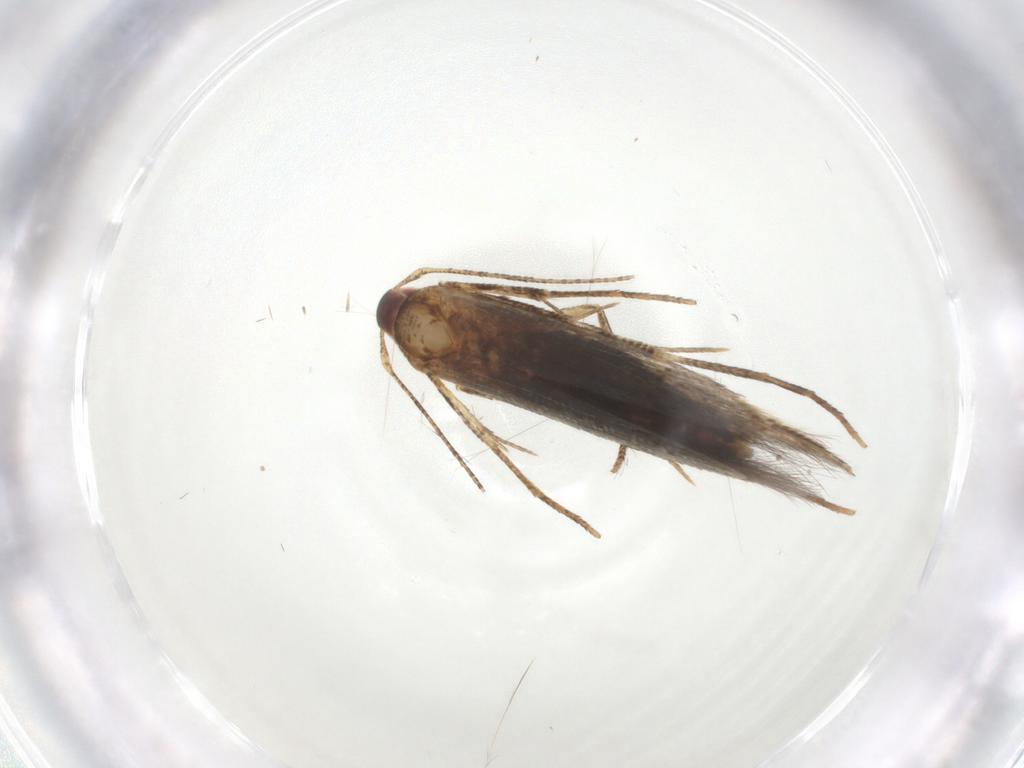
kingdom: Animalia
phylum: Arthropoda
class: Insecta
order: Lepidoptera
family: Cosmopterigidae
